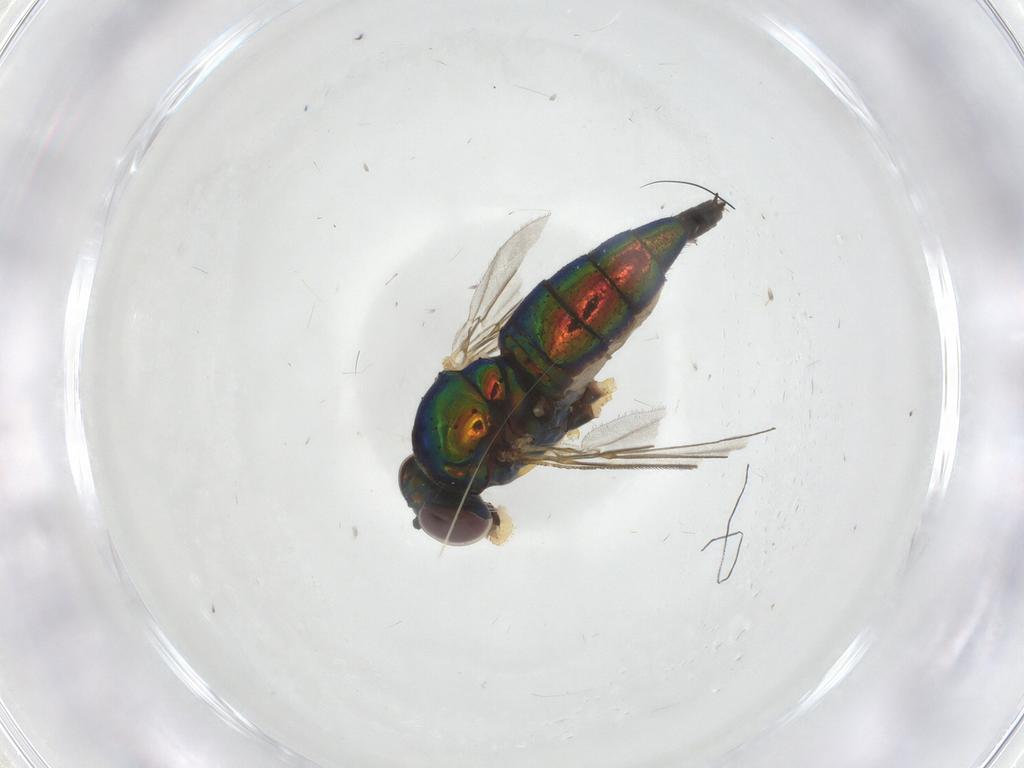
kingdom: Animalia
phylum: Arthropoda
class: Insecta
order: Diptera
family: Dolichopodidae
